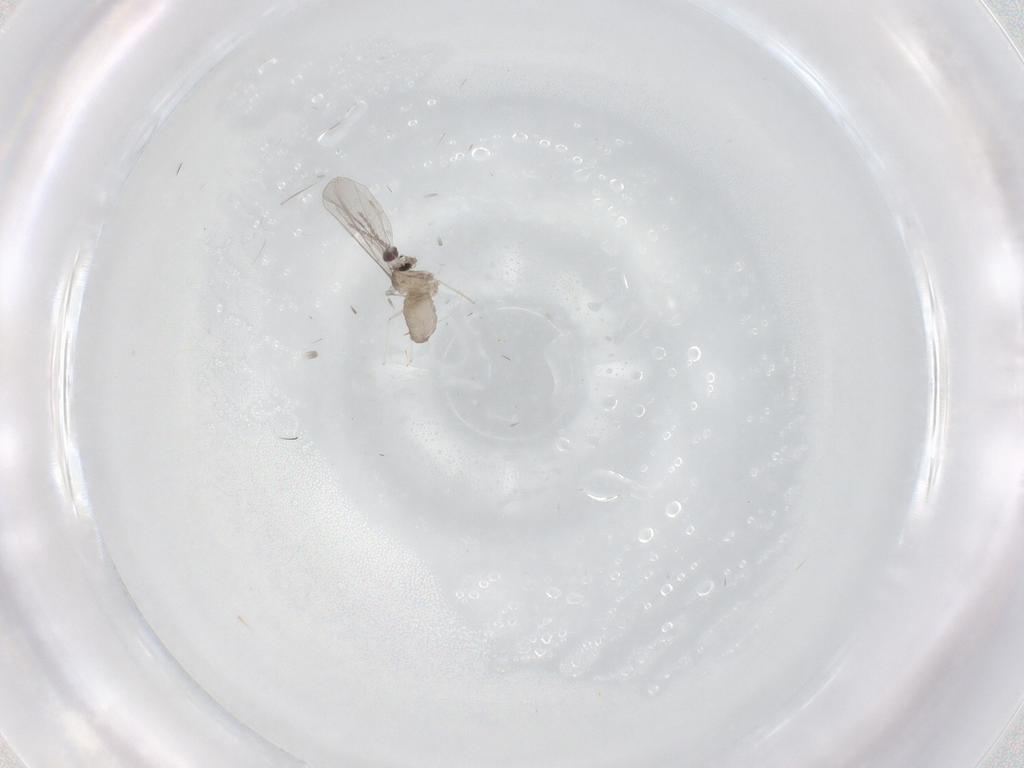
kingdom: Animalia
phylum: Arthropoda
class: Insecta
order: Diptera
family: Cecidomyiidae
